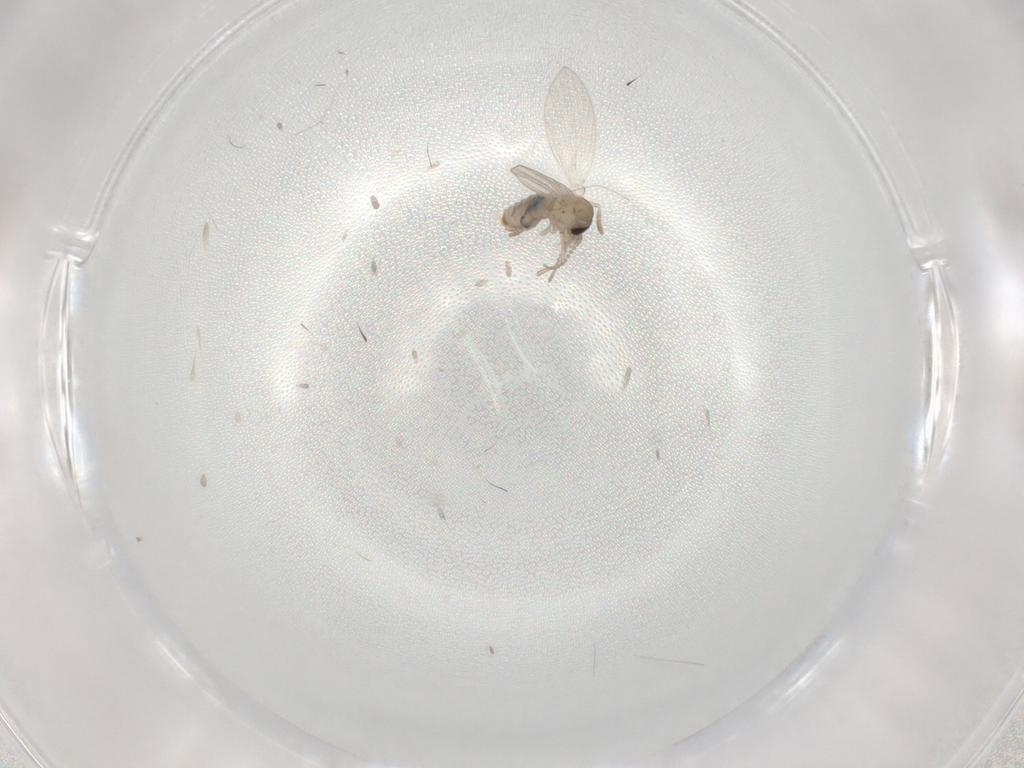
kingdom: Animalia
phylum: Arthropoda
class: Insecta
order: Diptera
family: Psychodidae
